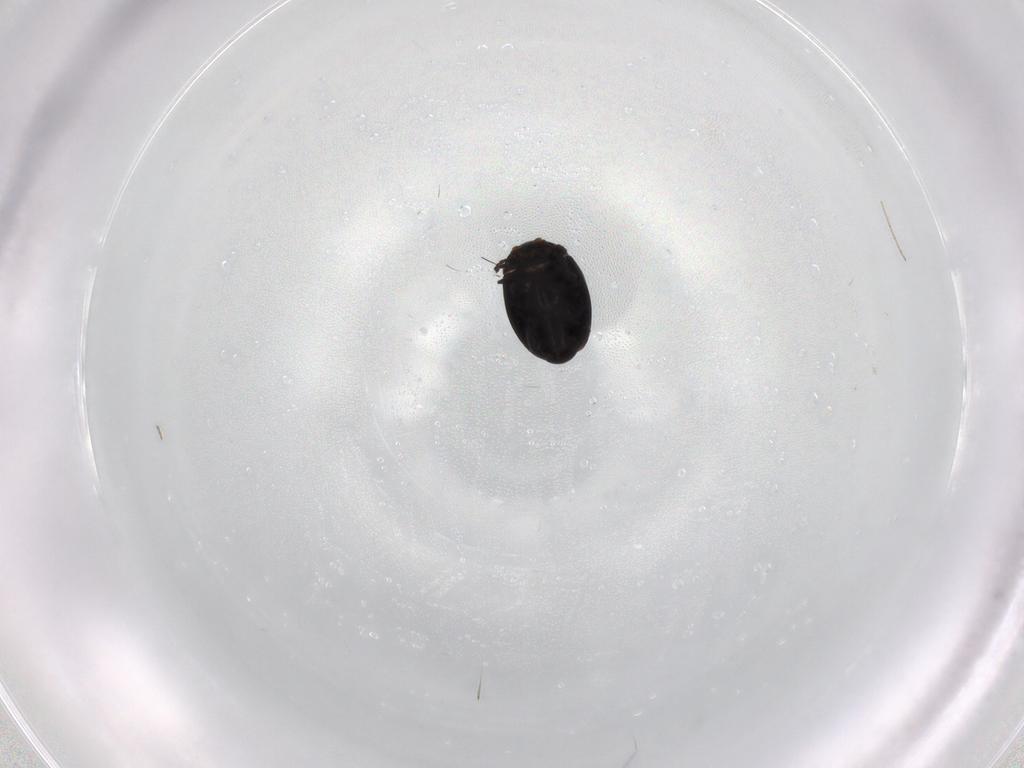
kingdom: Animalia
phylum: Arthropoda
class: Insecta
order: Coleoptera
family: Corylophidae
